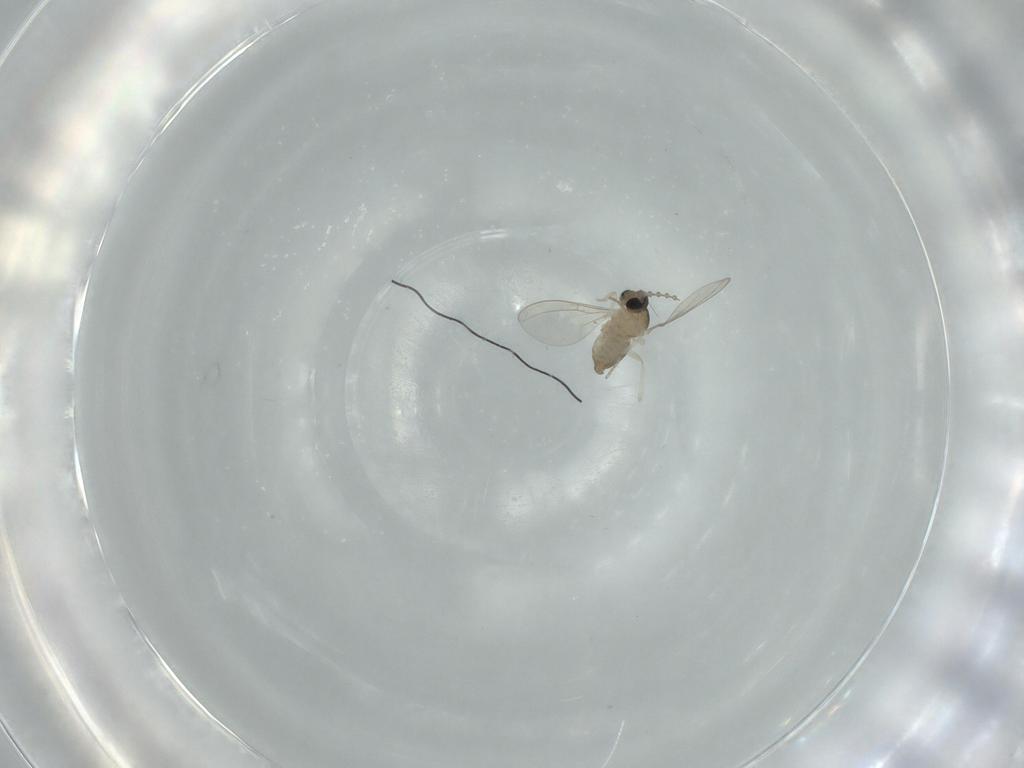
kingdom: Animalia
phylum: Arthropoda
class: Insecta
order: Diptera
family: Cecidomyiidae
